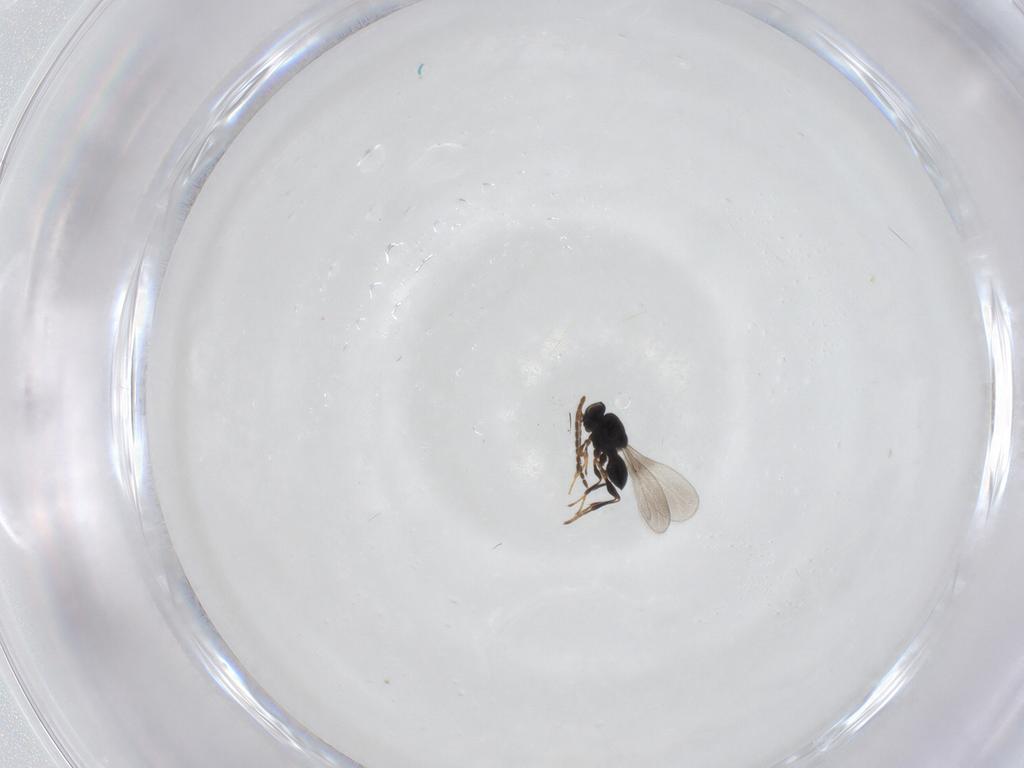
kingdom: Animalia
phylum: Arthropoda
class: Insecta
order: Hymenoptera
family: Platygastridae
